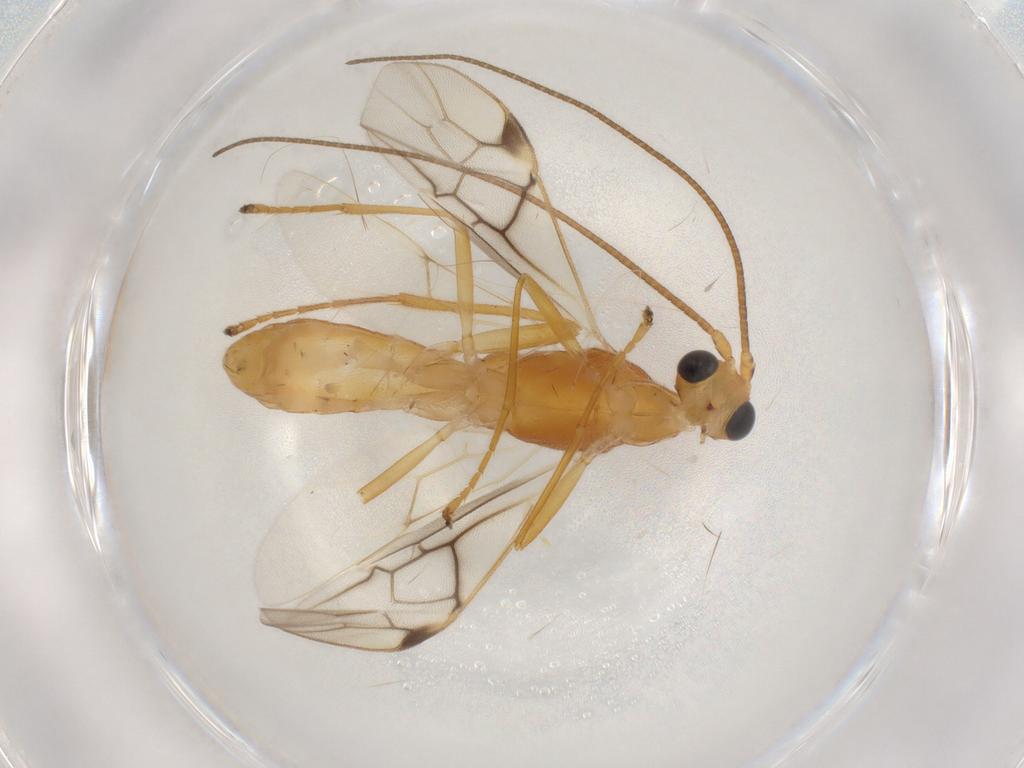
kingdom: Animalia
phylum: Arthropoda
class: Insecta
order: Hymenoptera
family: Braconidae
